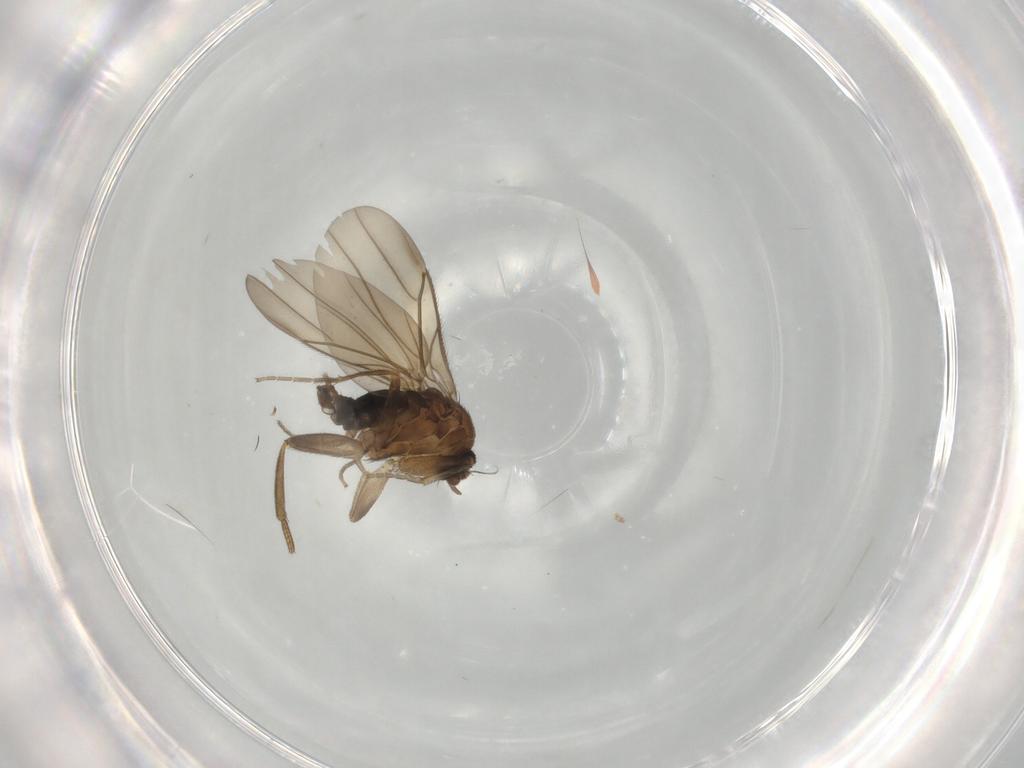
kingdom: Animalia
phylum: Arthropoda
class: Insecta
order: Diptera
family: Phoridae
